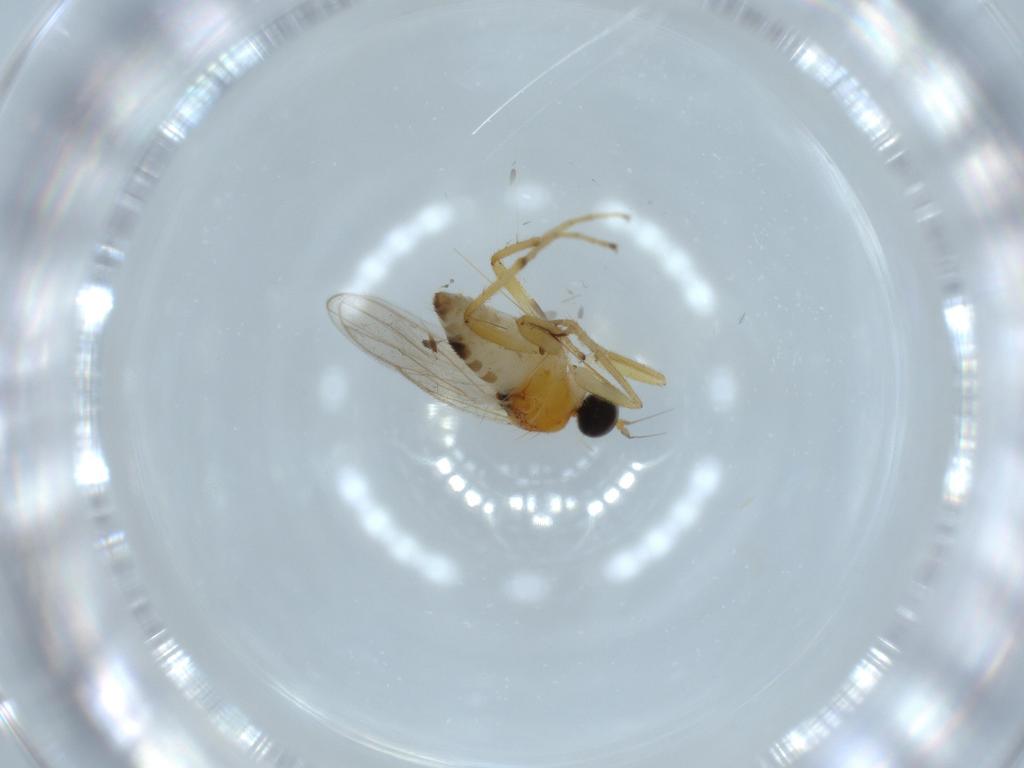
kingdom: Animalia
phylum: Arthropoda
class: Insecta
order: Diptera
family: Hybotidae
